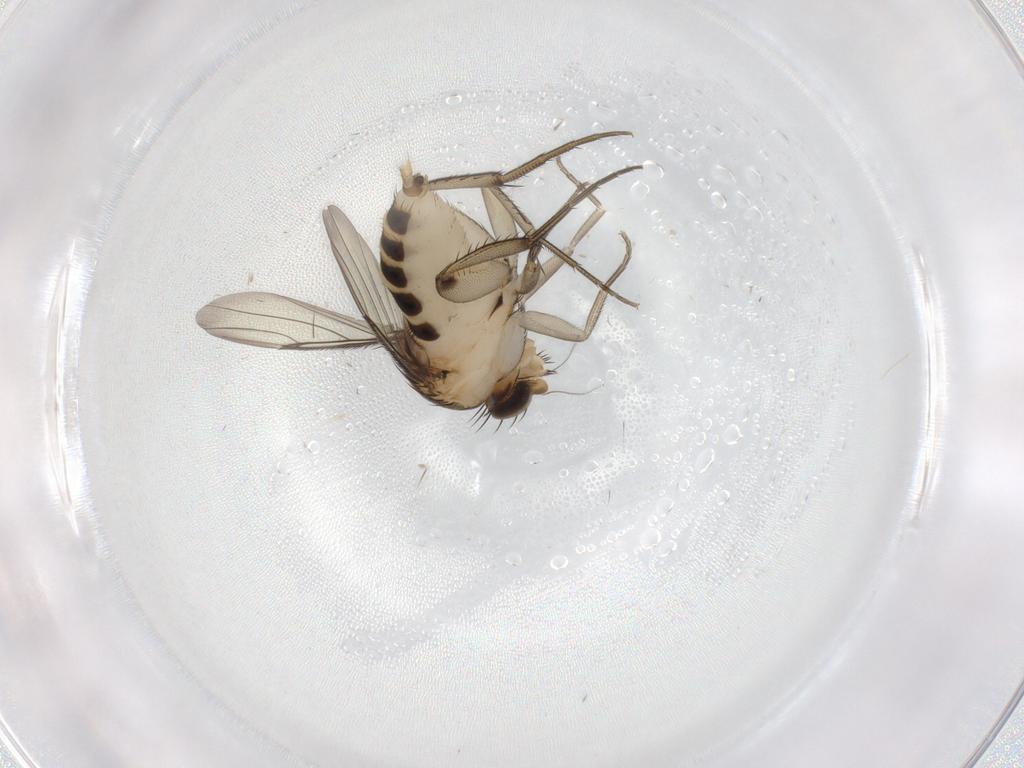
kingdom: Animalia
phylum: Arthropoda
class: Insecta
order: Diptera
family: Phoridae
